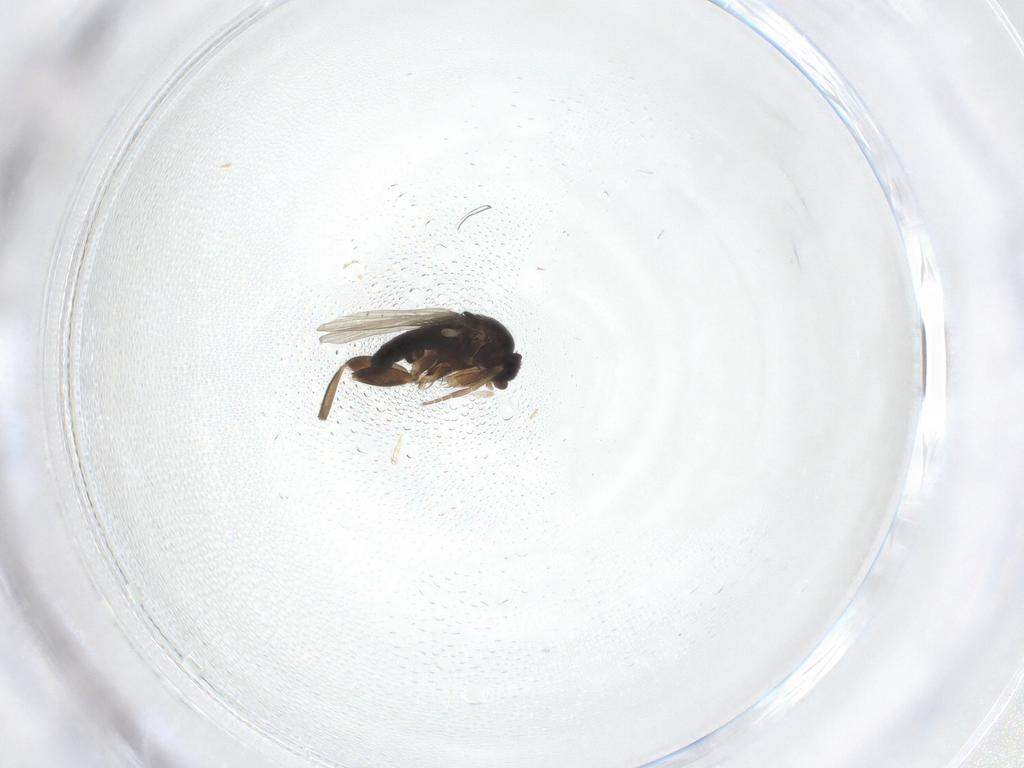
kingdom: Animalia
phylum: Arthropoda
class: Insecta
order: Diptera
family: Phoridae
